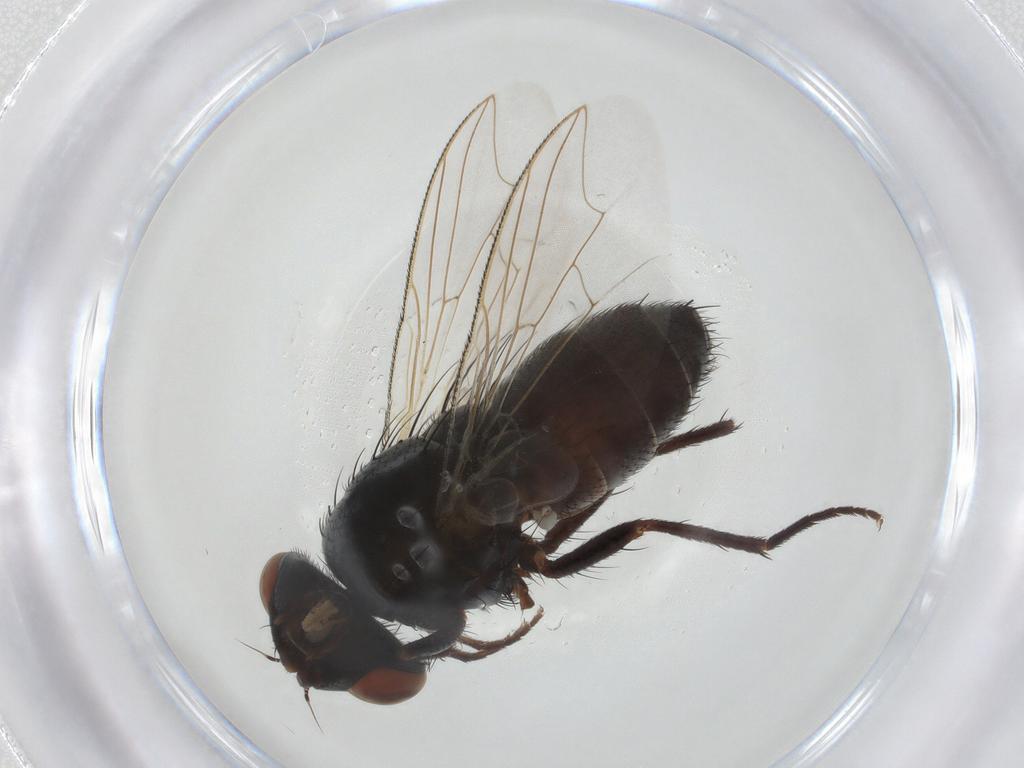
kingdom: Animalia
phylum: Arthropoda
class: Insecta
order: Diptera
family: Sarcophagidae
